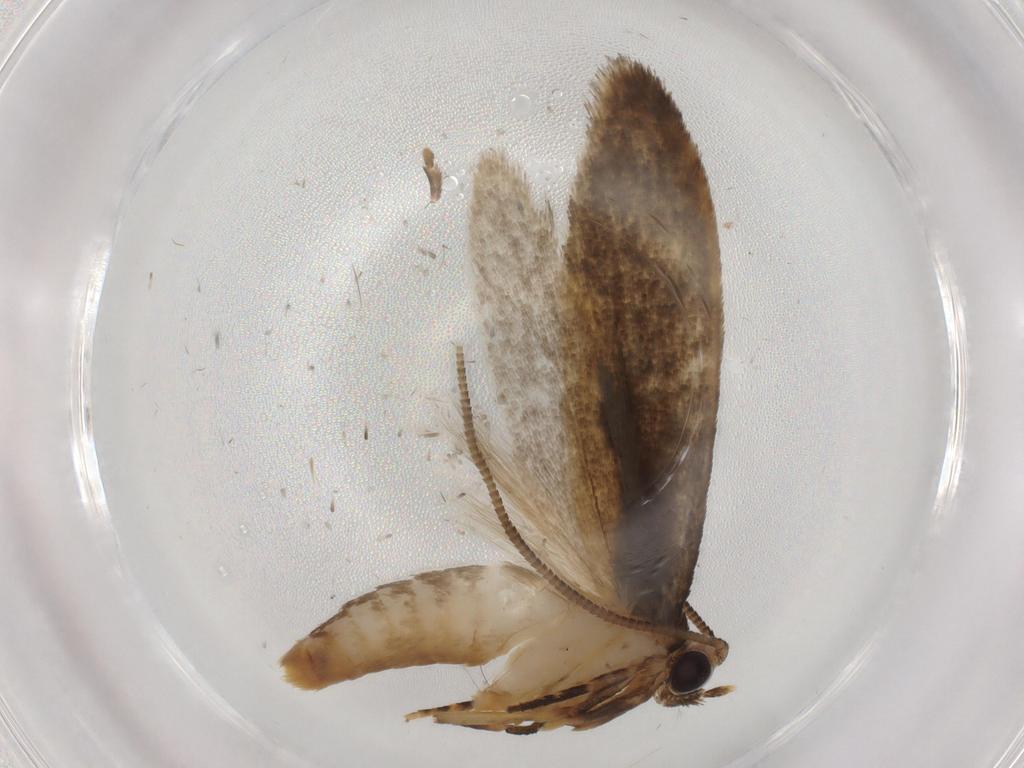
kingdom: Animalia
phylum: Arthropoda
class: Insecta
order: Lepidoptera
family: Tineidae
